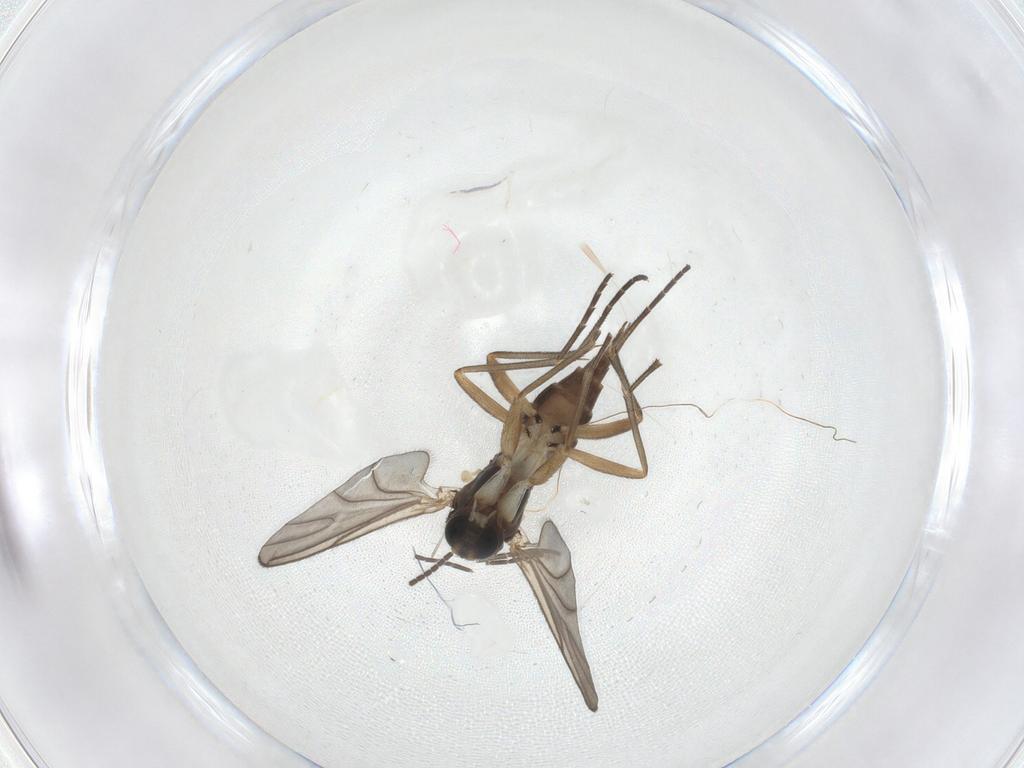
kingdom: Animalia
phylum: Arthropoda
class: Insecta
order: Diptera
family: Sciaridae
